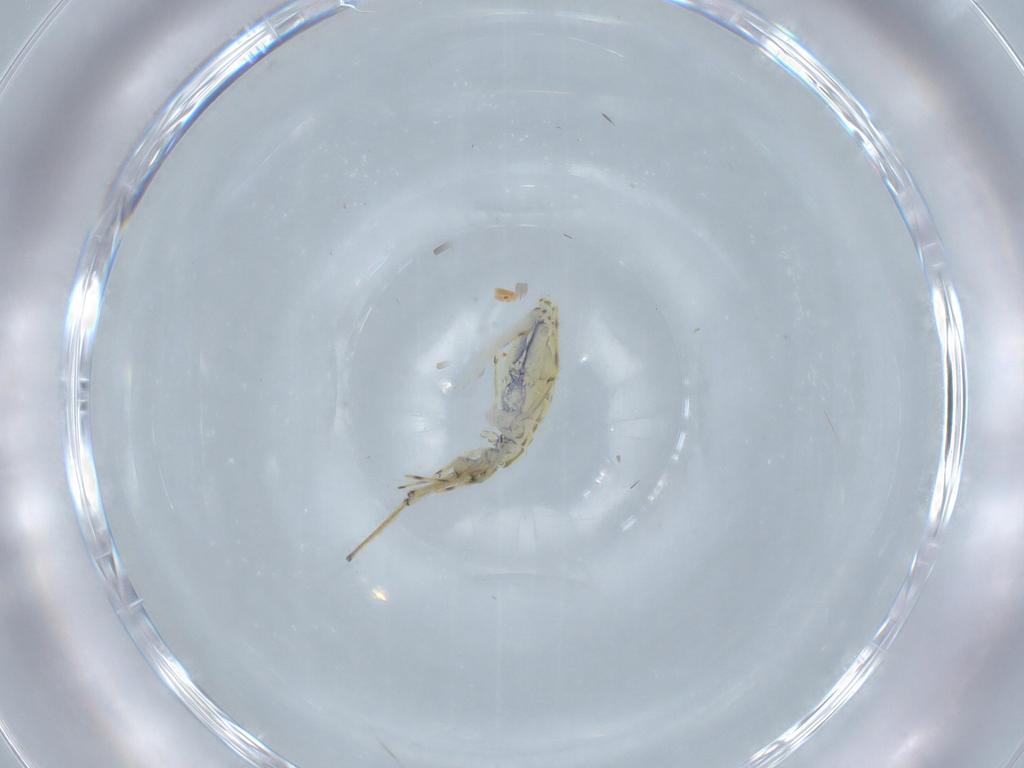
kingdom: Animalia
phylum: Arthropoda
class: Collembola
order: Entomobryomorpha
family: Paronellidae
